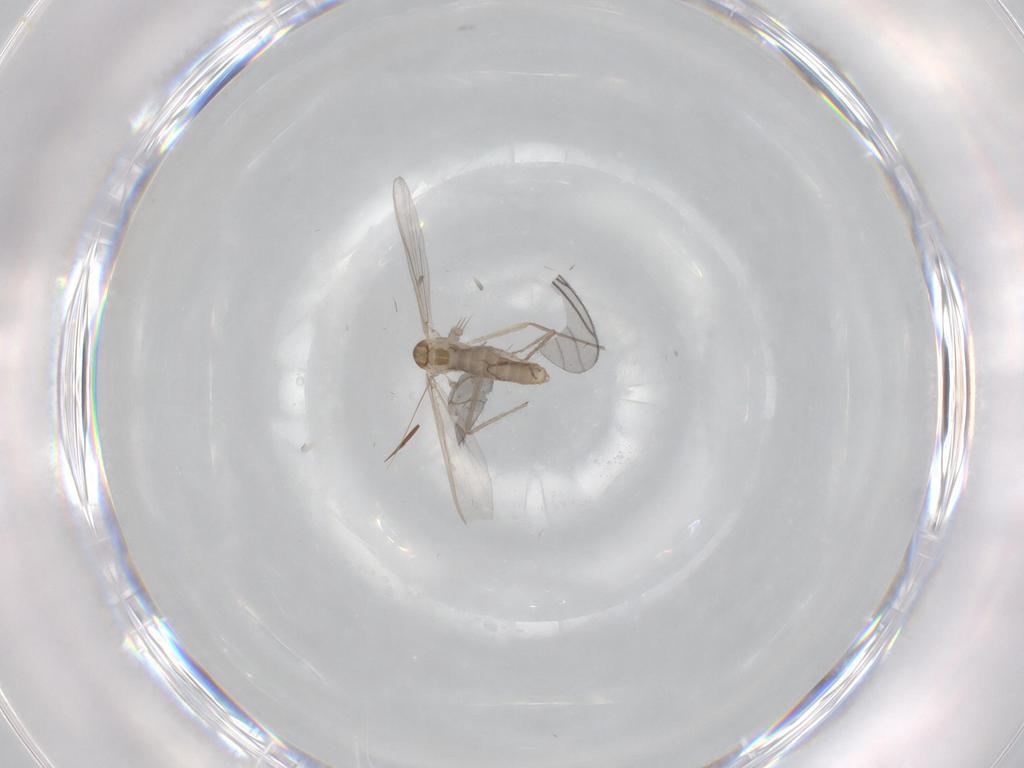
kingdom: Animalia
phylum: Arthropoda
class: Insecta
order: Diptera
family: Chironomidae
